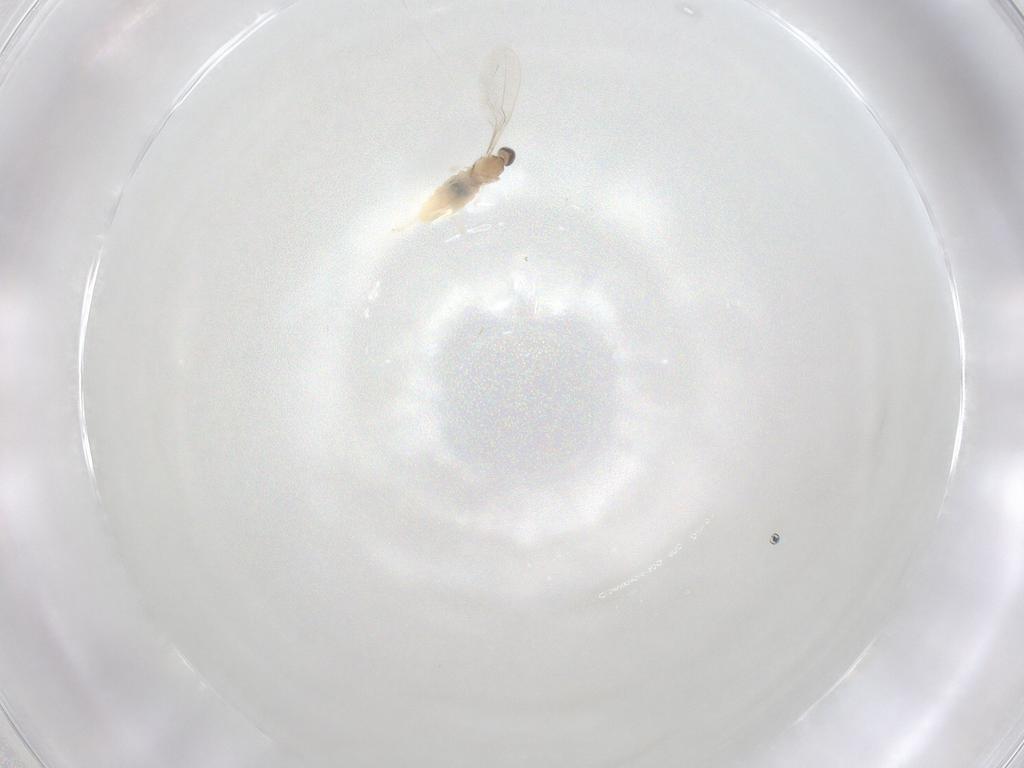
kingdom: Animalia
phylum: Arthropoda
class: Insecta
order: Diptera
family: Cecidomyiidae
